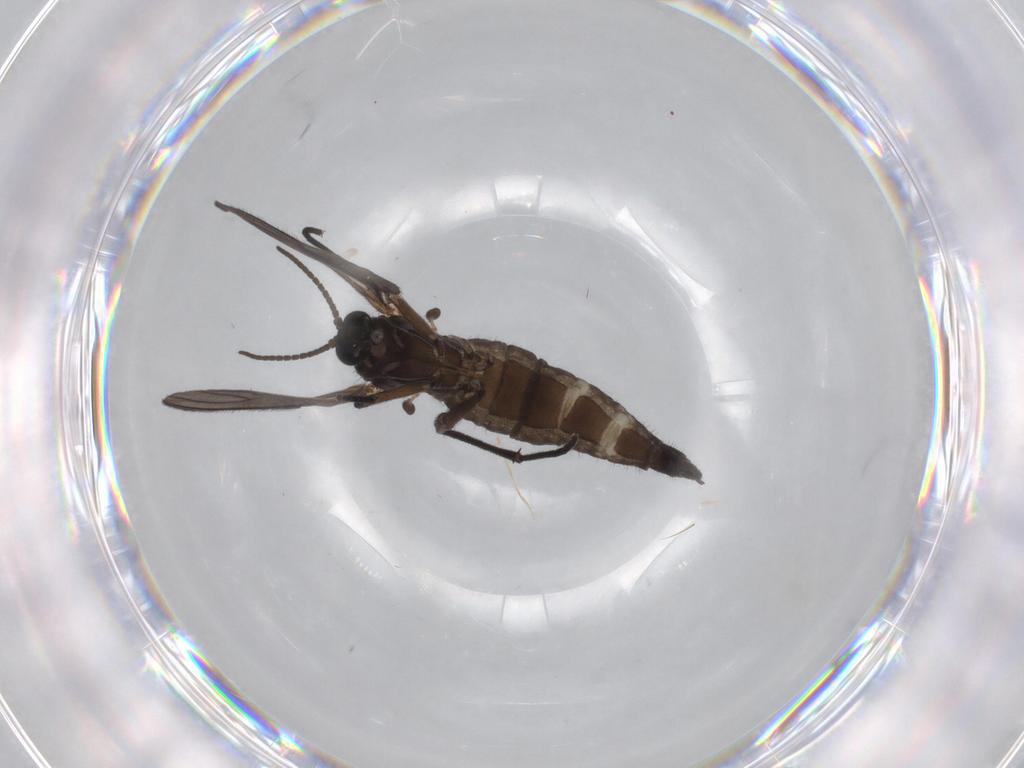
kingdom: Animalia
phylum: Arthropoda
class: Insecta
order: Diptera
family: Sciaridae
